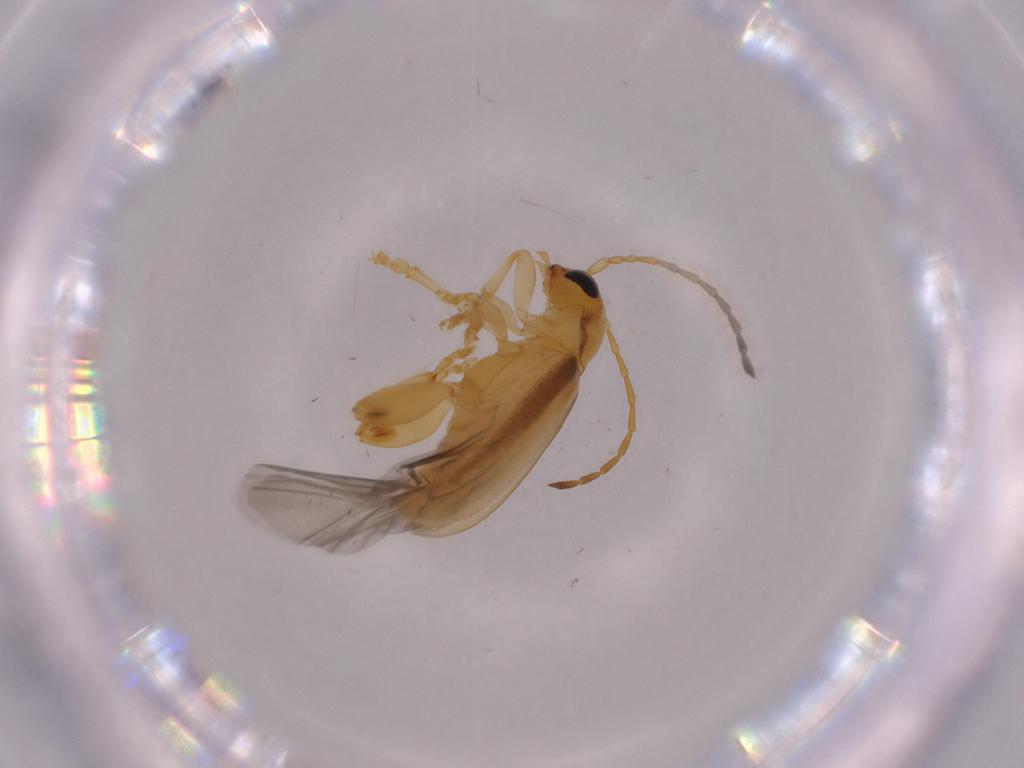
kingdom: Animalia
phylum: Arthropoda
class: Insecta
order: Coleoptera
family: Chrysomelidae
